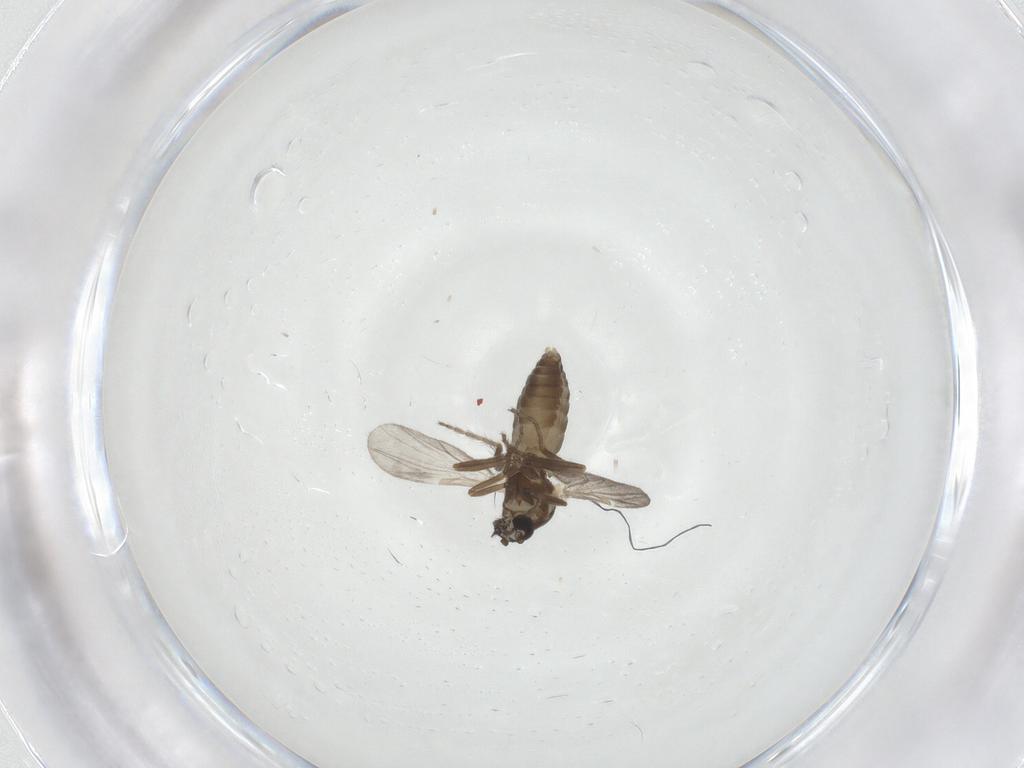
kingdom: Animalia
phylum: Arthropoda
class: Insecta
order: Diptera
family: Ceratopogonidae
